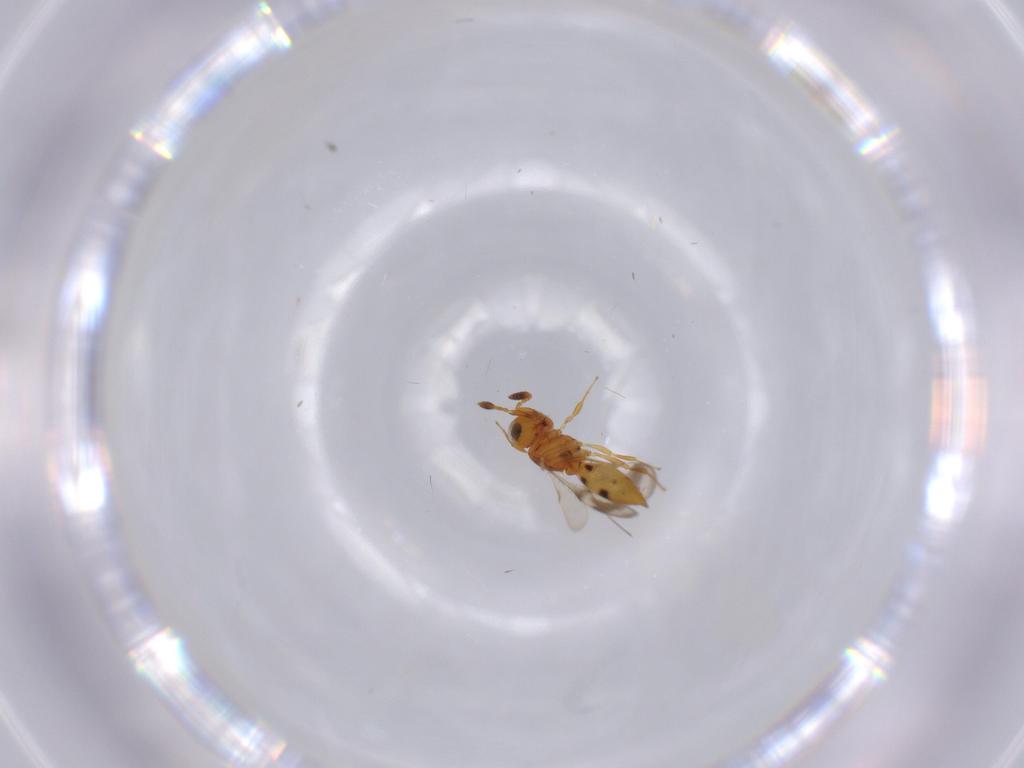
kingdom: Animalia
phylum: Arthropoda
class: Insecta
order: Hymenoptera
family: Scelionidae
